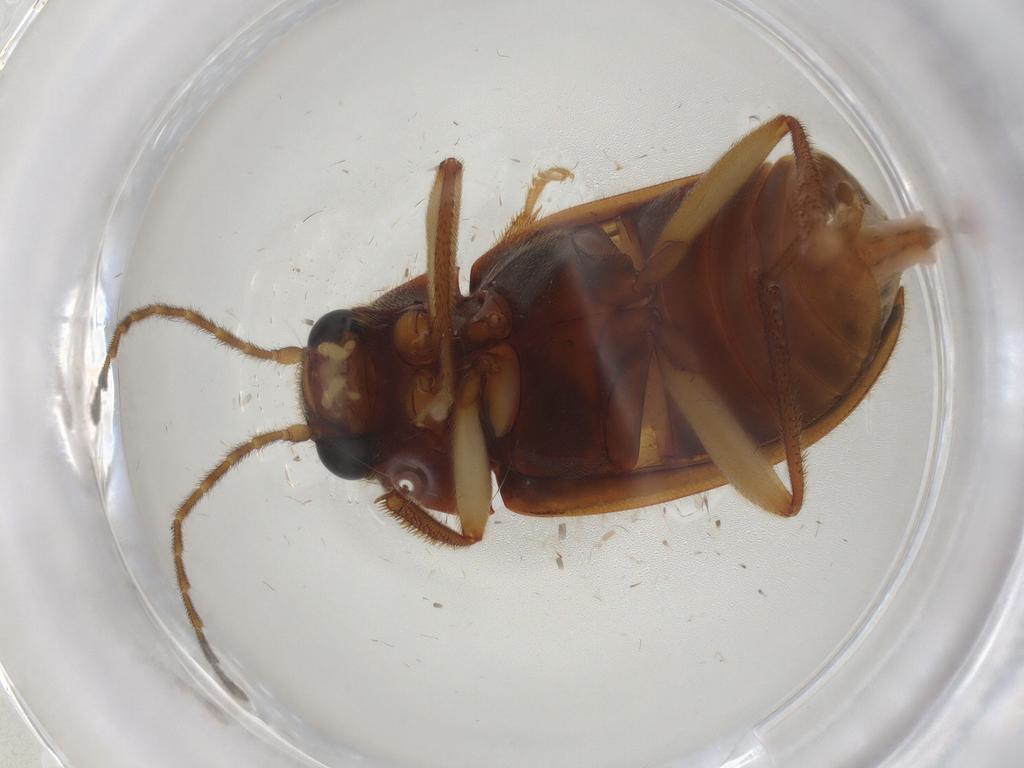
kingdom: Animalia
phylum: Arthropoda
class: Insecta
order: Coleoptera
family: Ptilodactylidae
